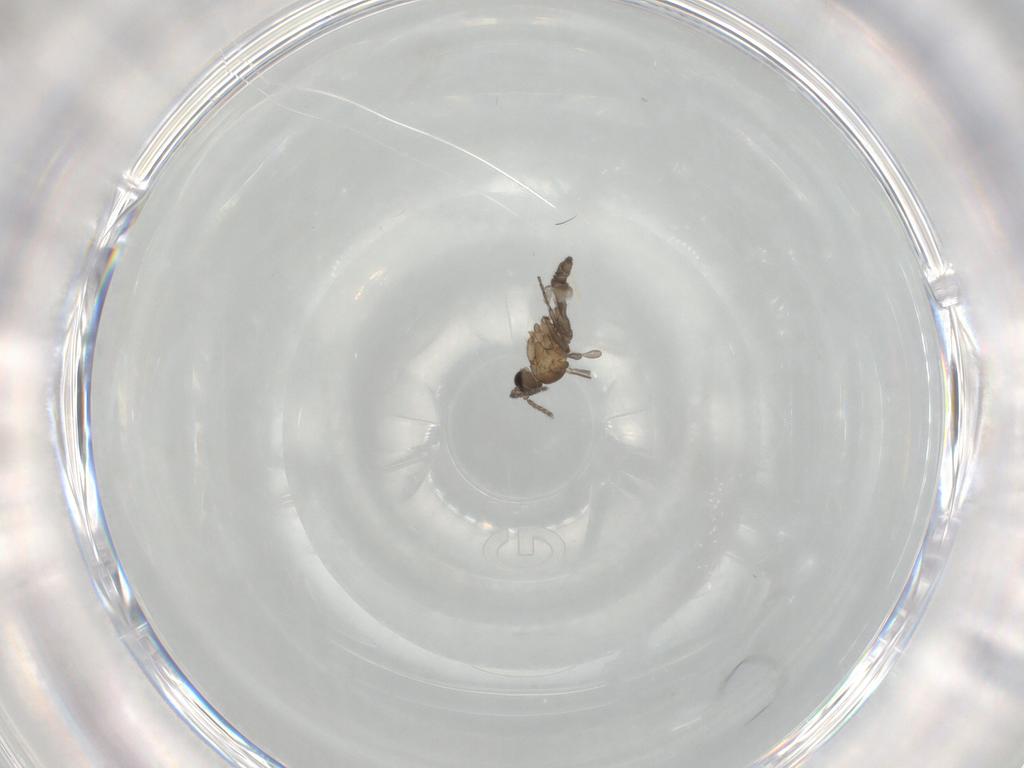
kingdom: Animalia
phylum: Arthropoda
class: Insecta
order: Diptera
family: Sciaridae
